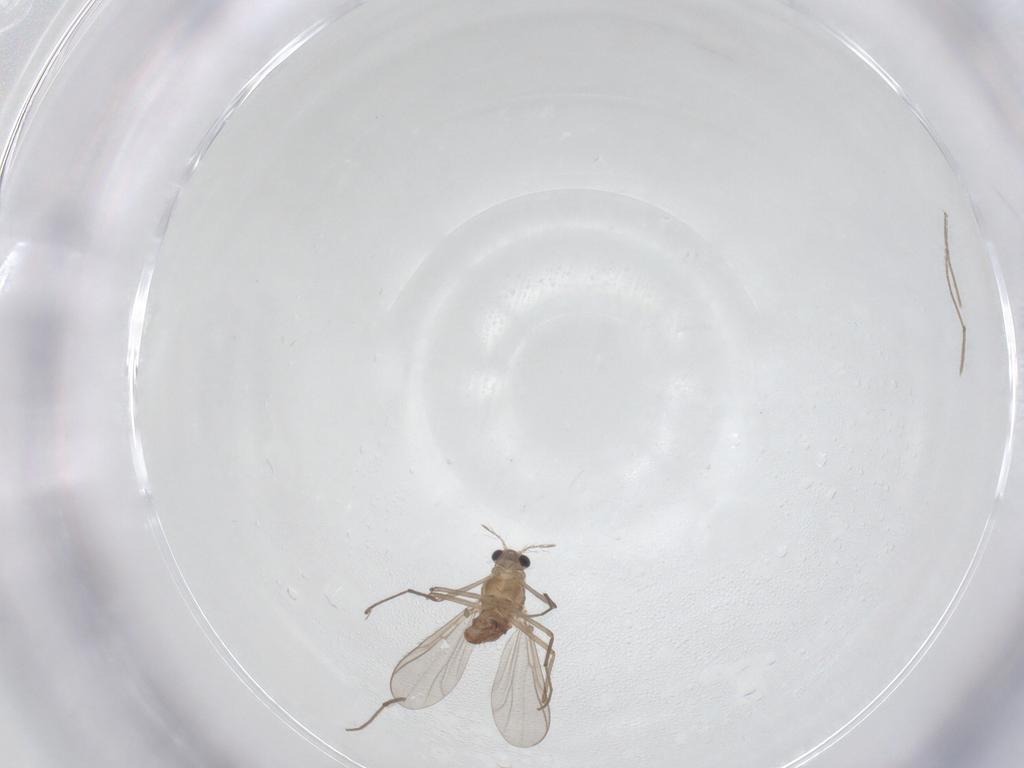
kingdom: Animalia
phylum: Arthropoda
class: Insecta
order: Diptera
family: Chironomidae
